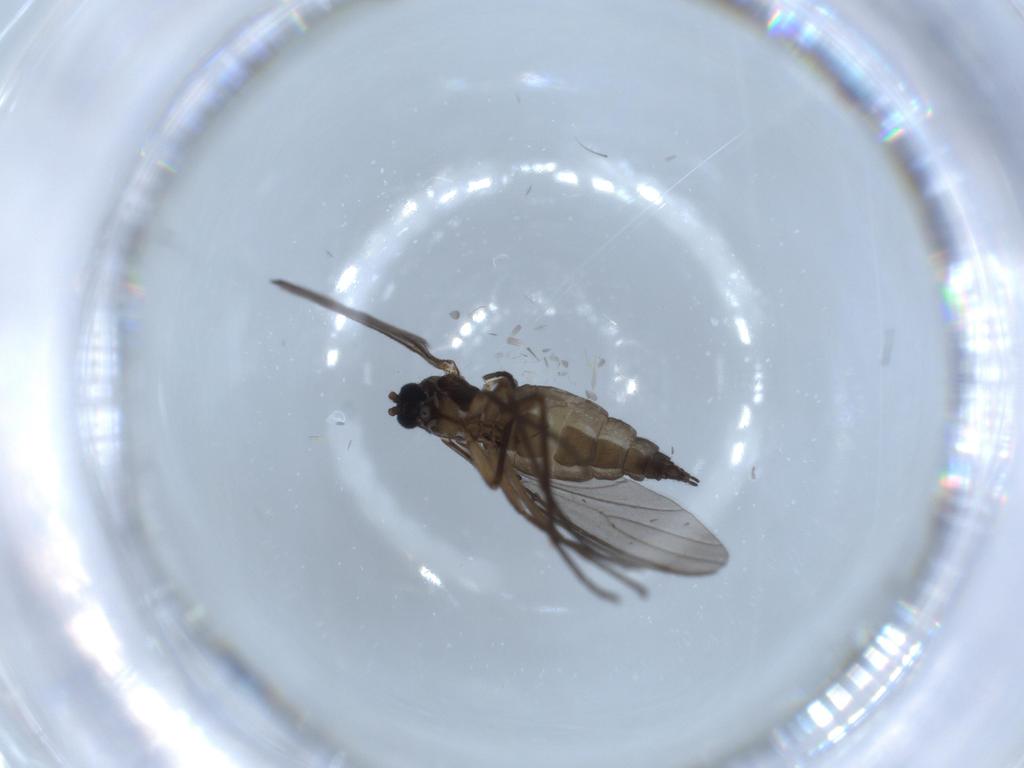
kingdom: Animalia
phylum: Arthropoda
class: Insecta
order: Diptera
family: Sciaridae
